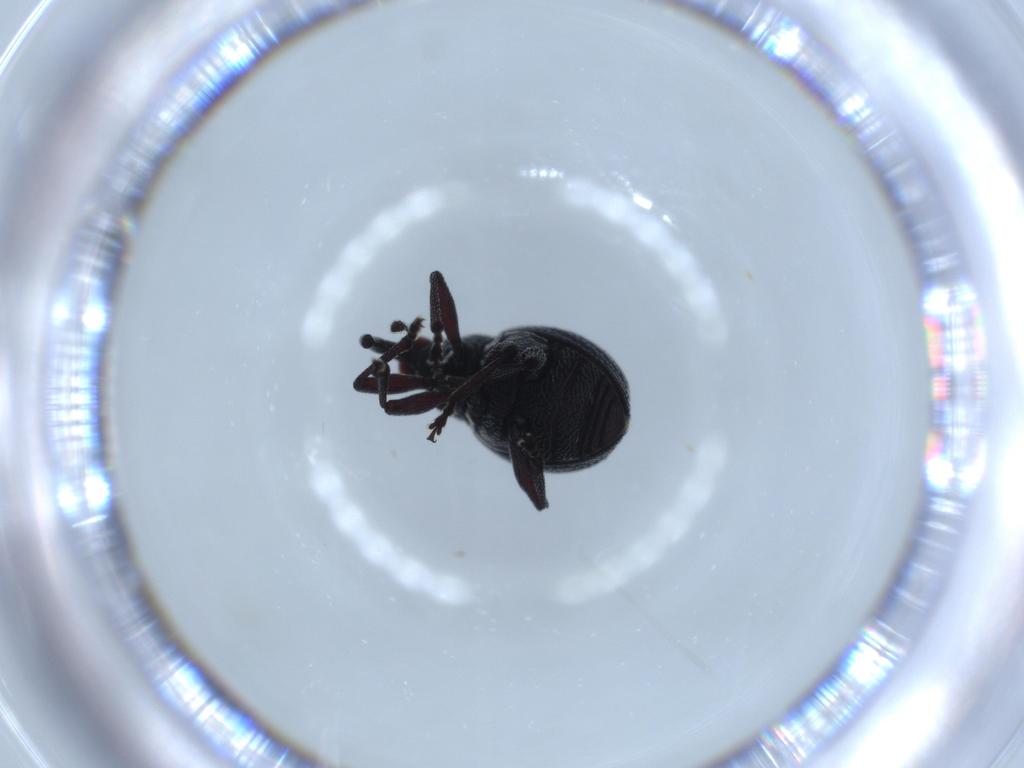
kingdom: Animalia
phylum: Arthropoda
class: Insecta
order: Coleoptera
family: Brentidae
